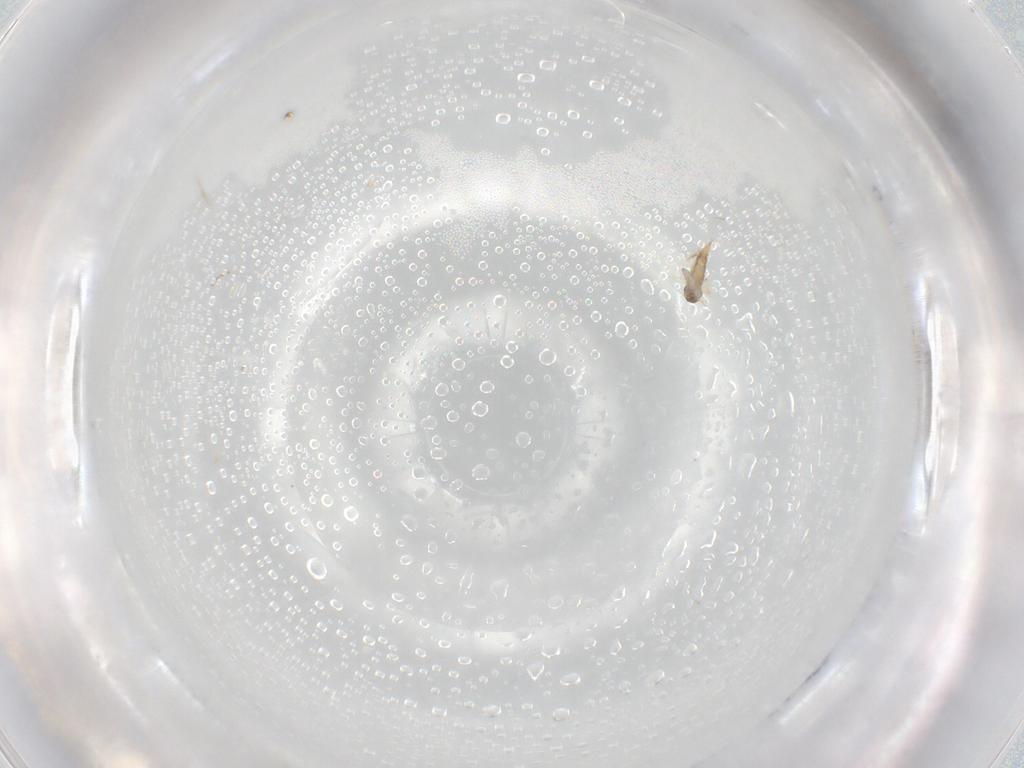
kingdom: Animalia
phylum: Arthropoda
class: Insecta
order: Diptera
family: Cecidomyiidae
